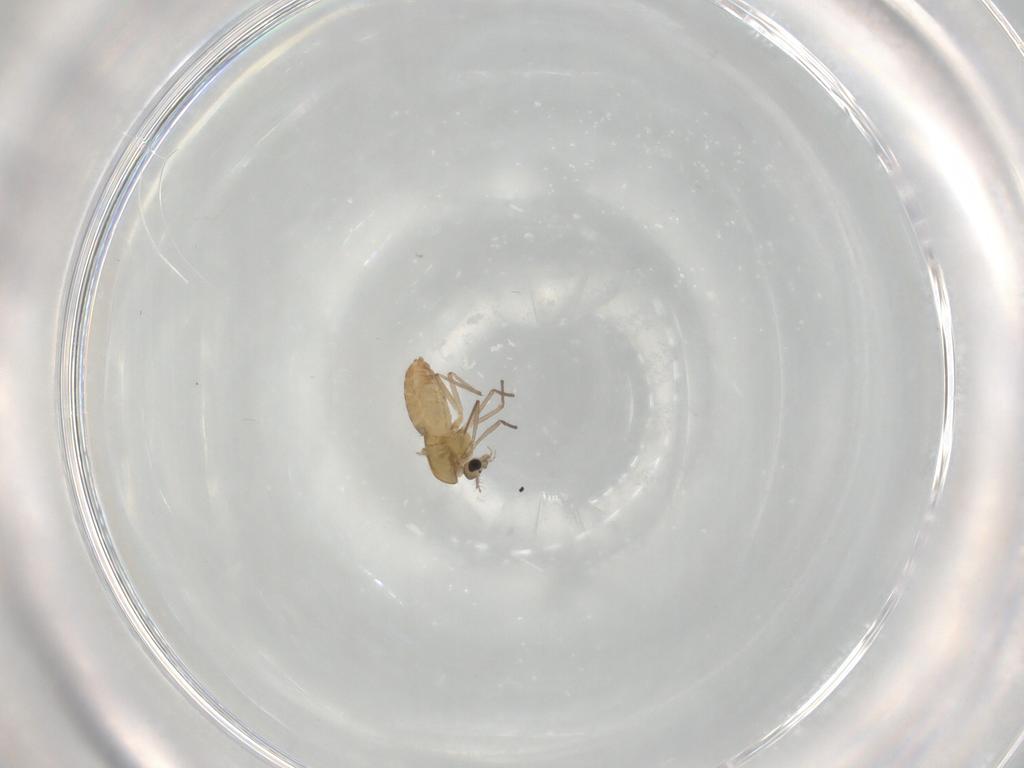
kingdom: Animalia
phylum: Arthropoda
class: Insecta
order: Diptera
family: Chironomidae
